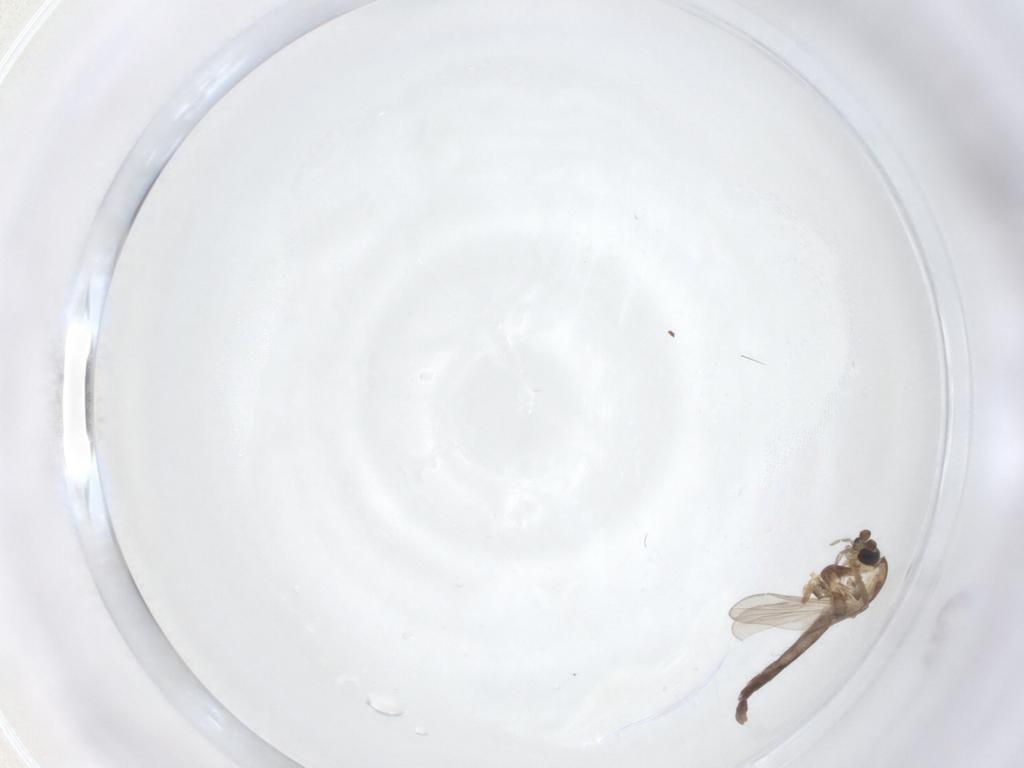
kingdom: Animalia
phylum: Arthropoda
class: Insecta
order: Diptera
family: Chironomidae
